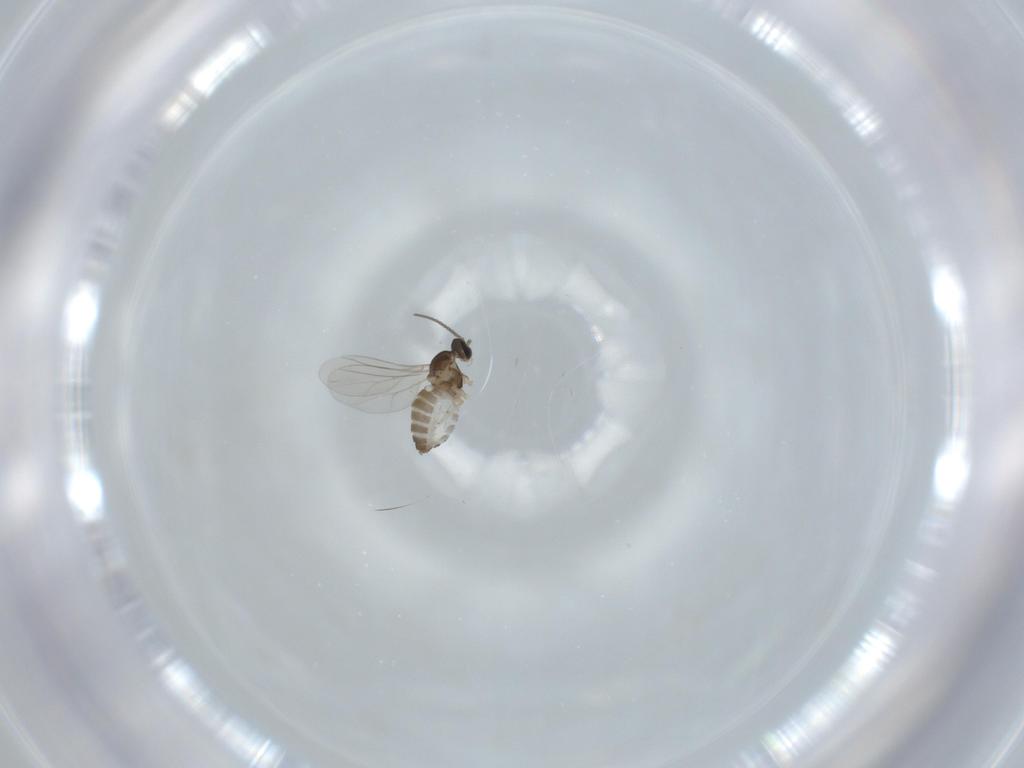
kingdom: Animalia
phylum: Arthropoda
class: Insecta
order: Diptera
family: Cecidomyiidae
